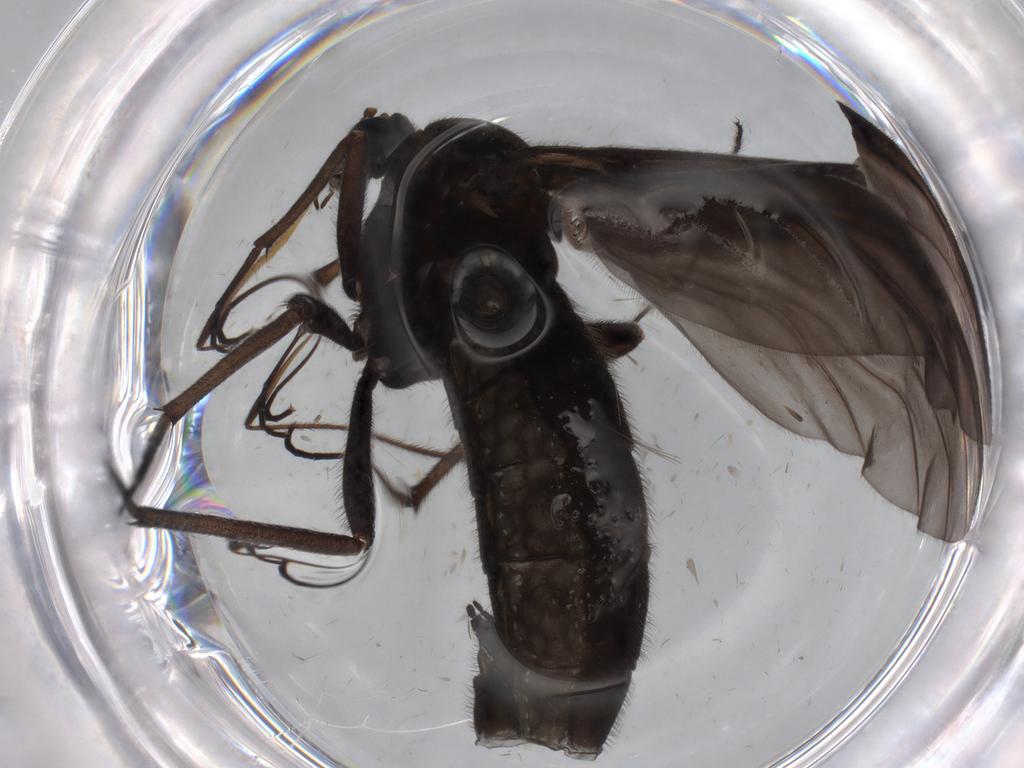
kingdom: Animalia
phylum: Arthropoda
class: Insecta
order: Diptera
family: Limoniidae
